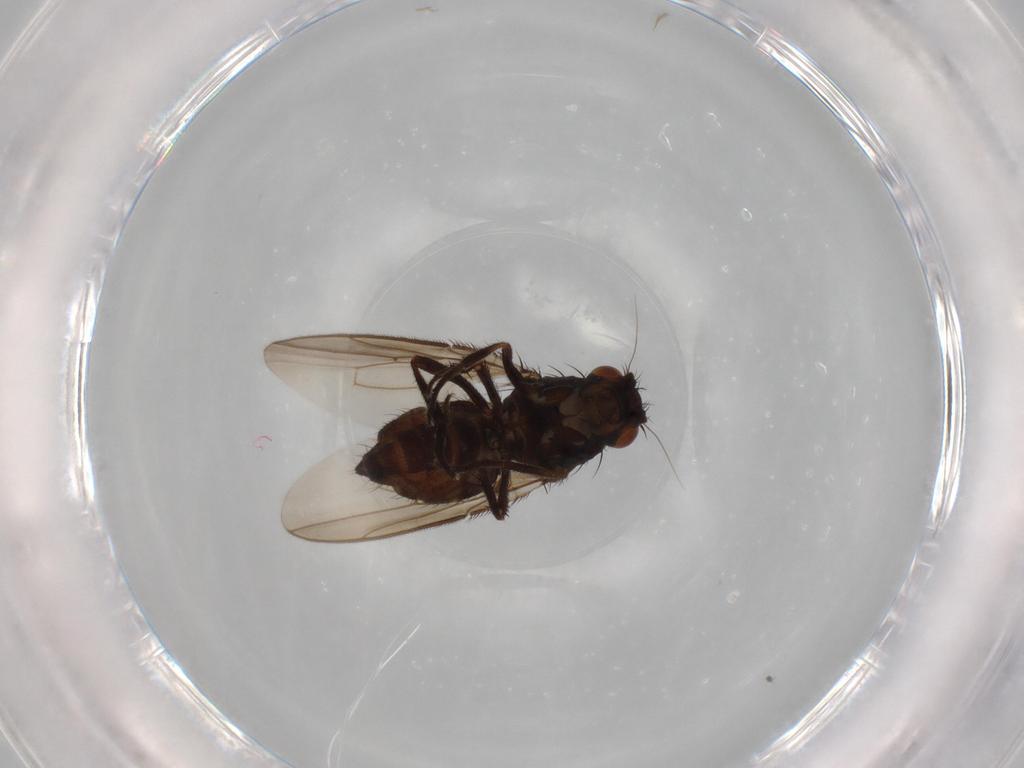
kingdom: Animalia
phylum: Arthropoda
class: Insecta
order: Diptera
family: Sphaeroceridae
